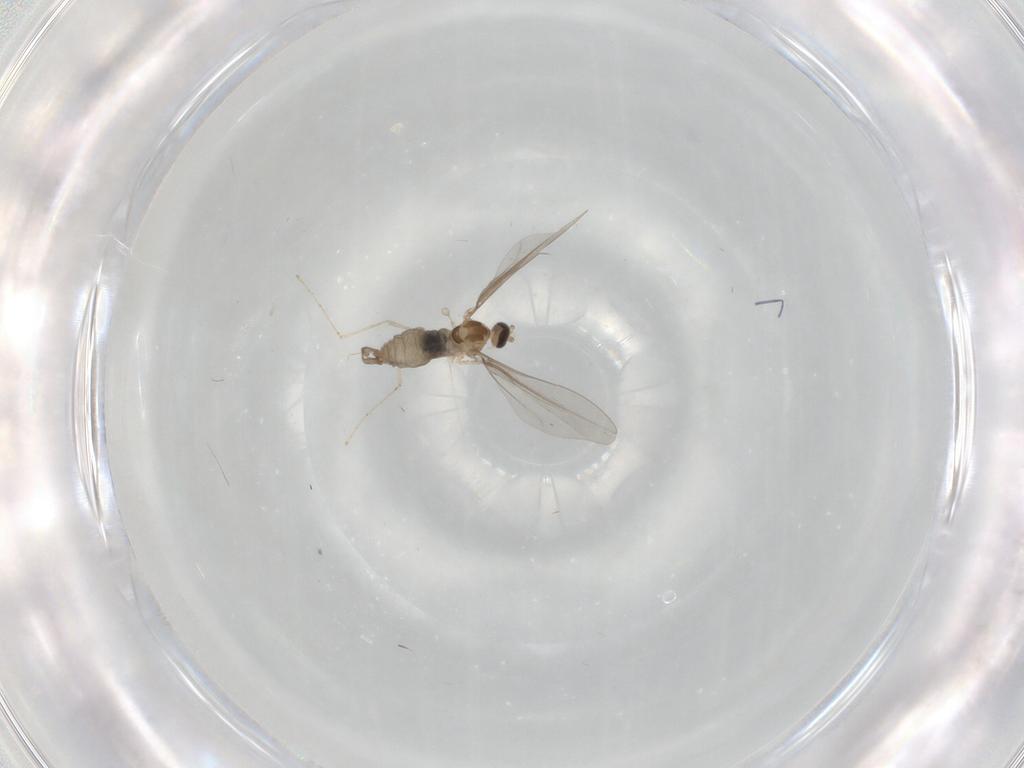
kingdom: Animalia
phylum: Arthropoda
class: Insecta
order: Diptera
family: Cecidomyiidae
